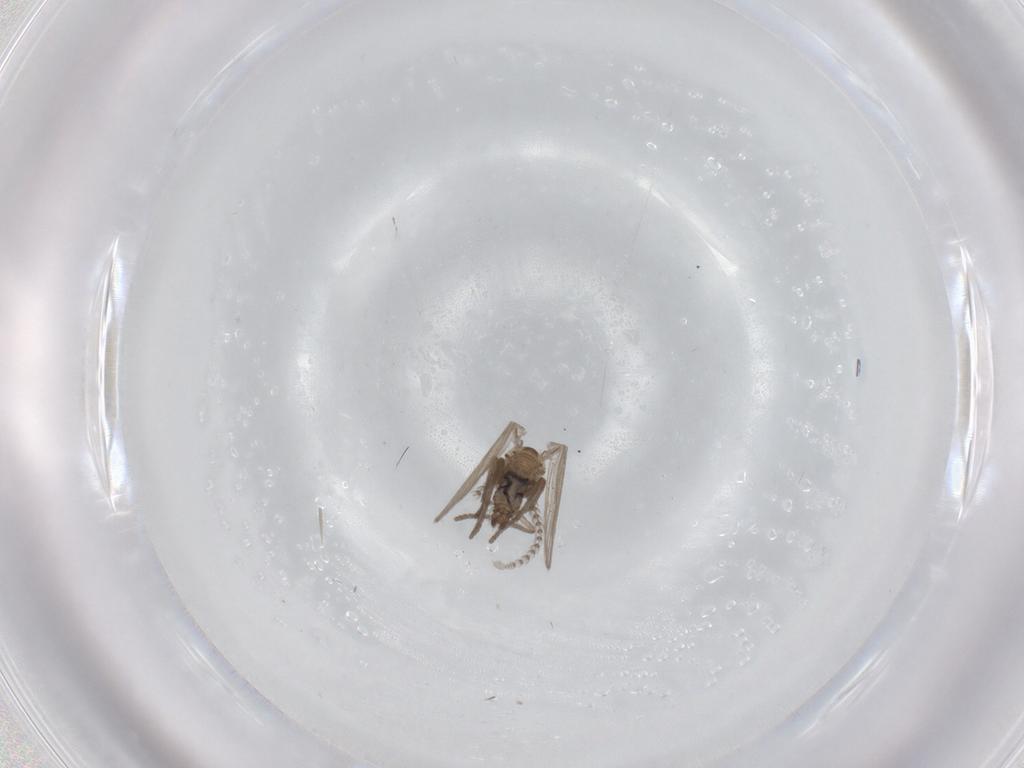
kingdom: Animalia
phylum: Arthropoda
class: Insecta
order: Diptera
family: Psychodidae
